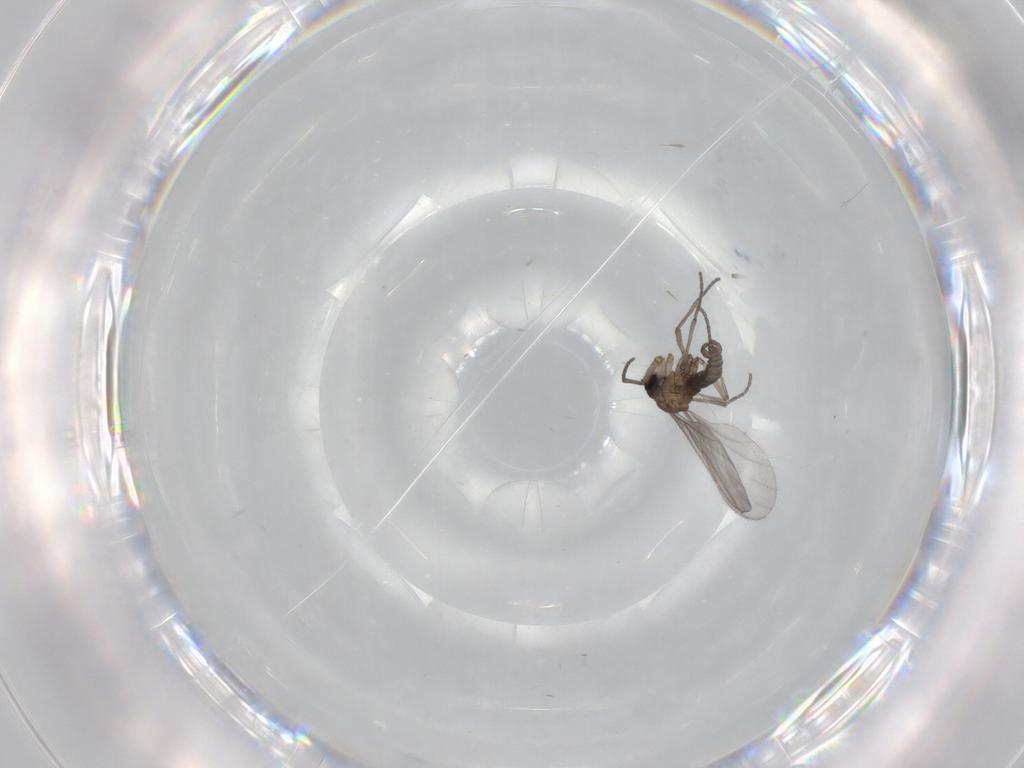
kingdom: Animalia
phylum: Arthropoda
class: Insecta
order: Diptera
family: Sciaridae
